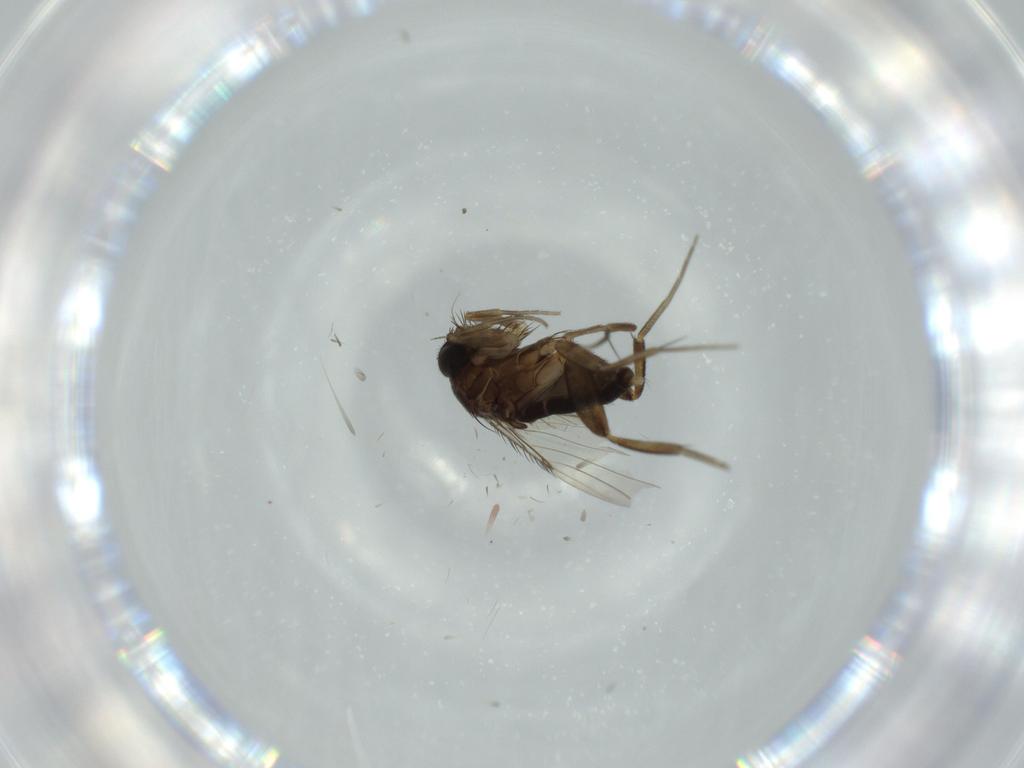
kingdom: Animalia
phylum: Arthropoda
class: Insecta
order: Diptera
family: Phoridae
